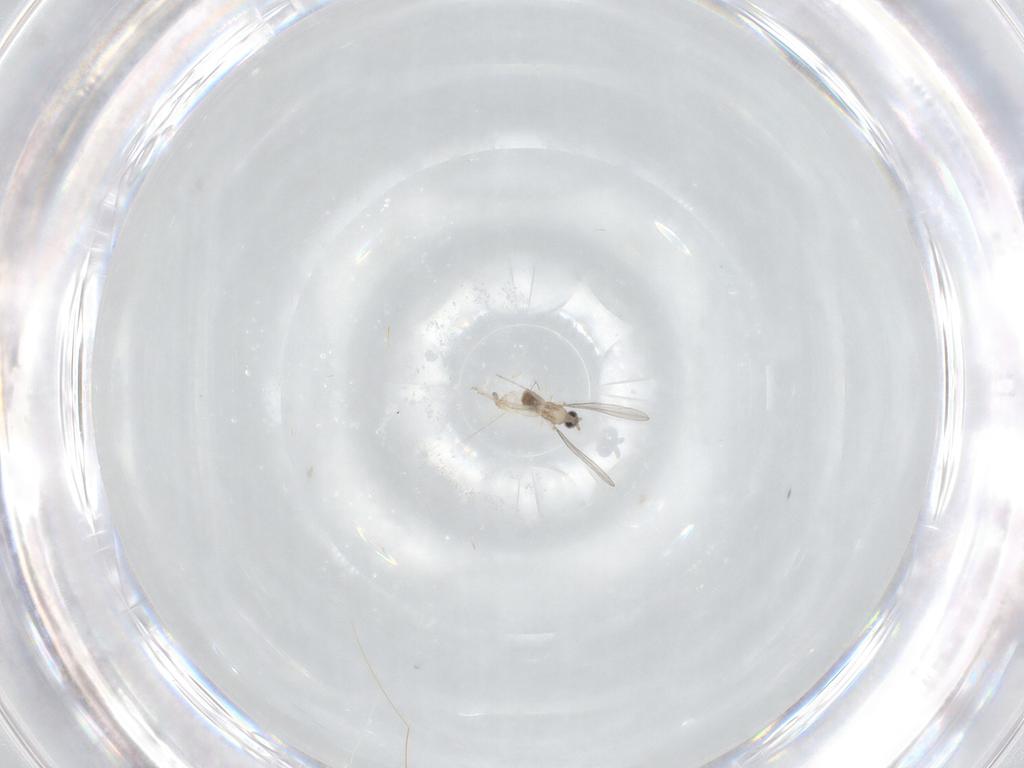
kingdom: Animalia
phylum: Arthropoda
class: Insecta
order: Diptera
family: Cecidomyiidae
